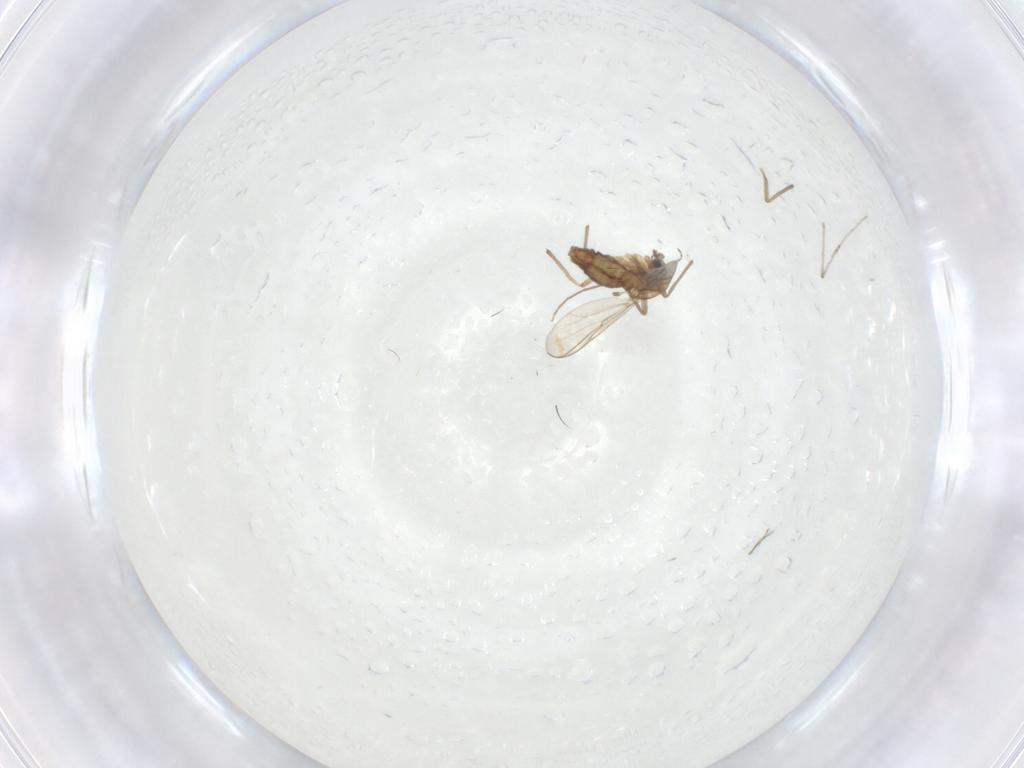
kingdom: Animalia
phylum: Arthropoda
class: Insecta
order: Diptera
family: Chironomidae
